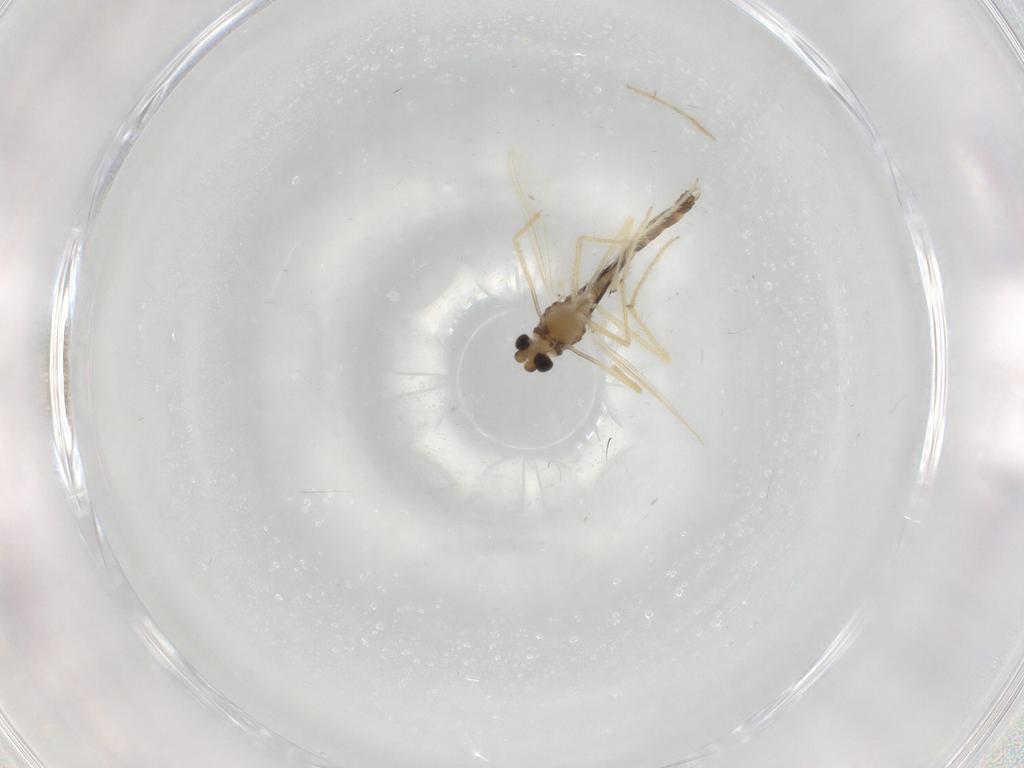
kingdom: Animalia
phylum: Arthropoda
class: Insecta
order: Diptera
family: Chironomidae
